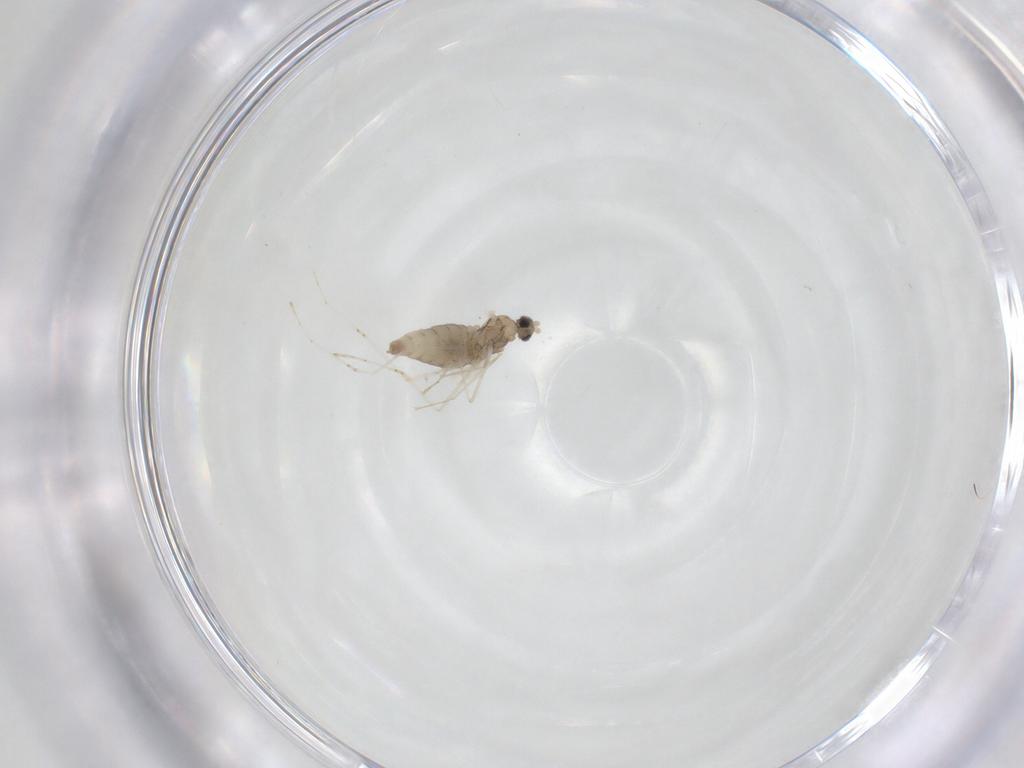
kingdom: Animalia
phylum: Arthropoda
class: Insecta
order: Diptera
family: Cecidomyiidae
